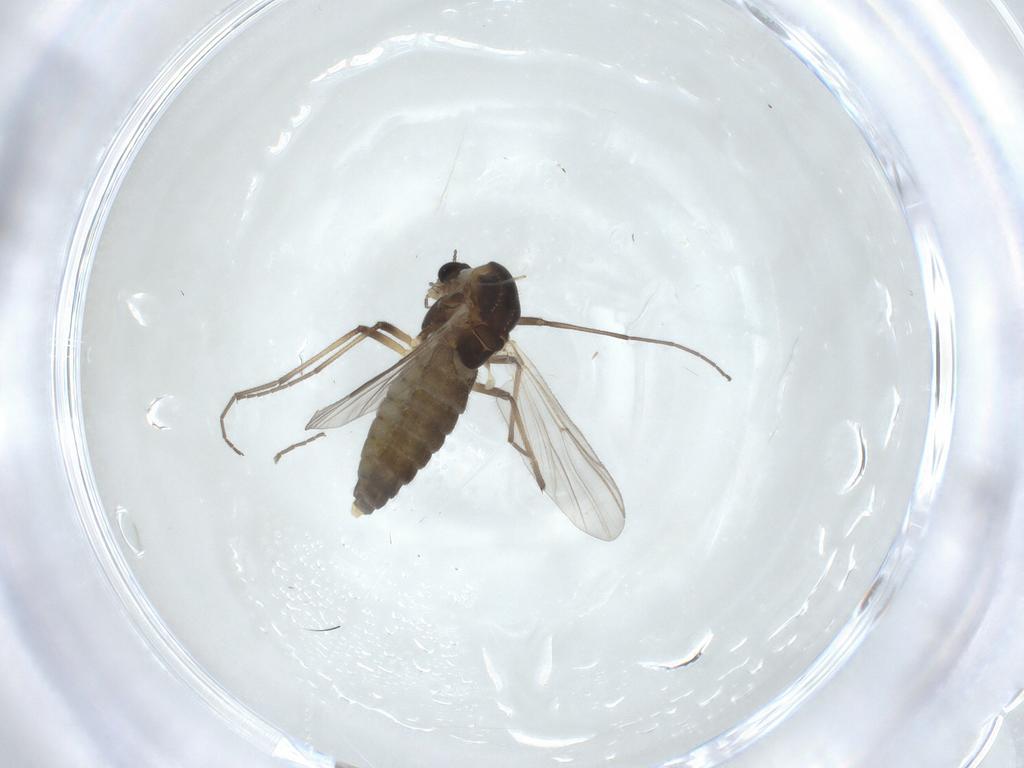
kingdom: Animalia
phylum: Arthropoda
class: Insecta
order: Diptera
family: Chironomidae
